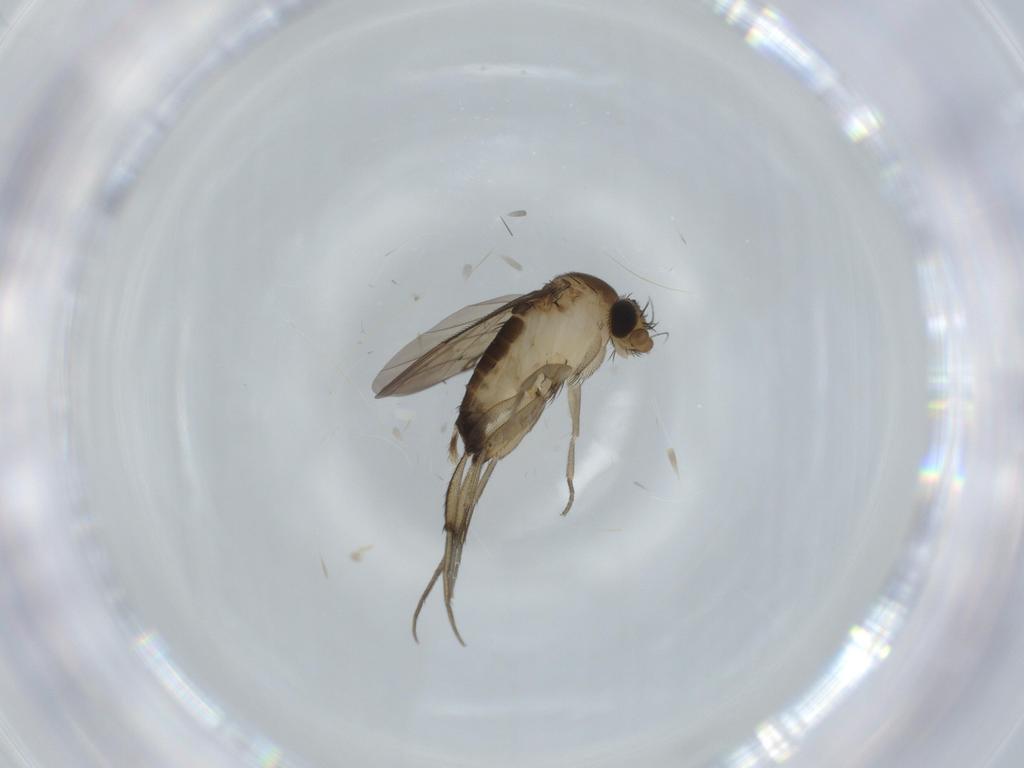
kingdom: Animalia
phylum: Arthropoda
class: Insecta
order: Diptera
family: Phoridae
